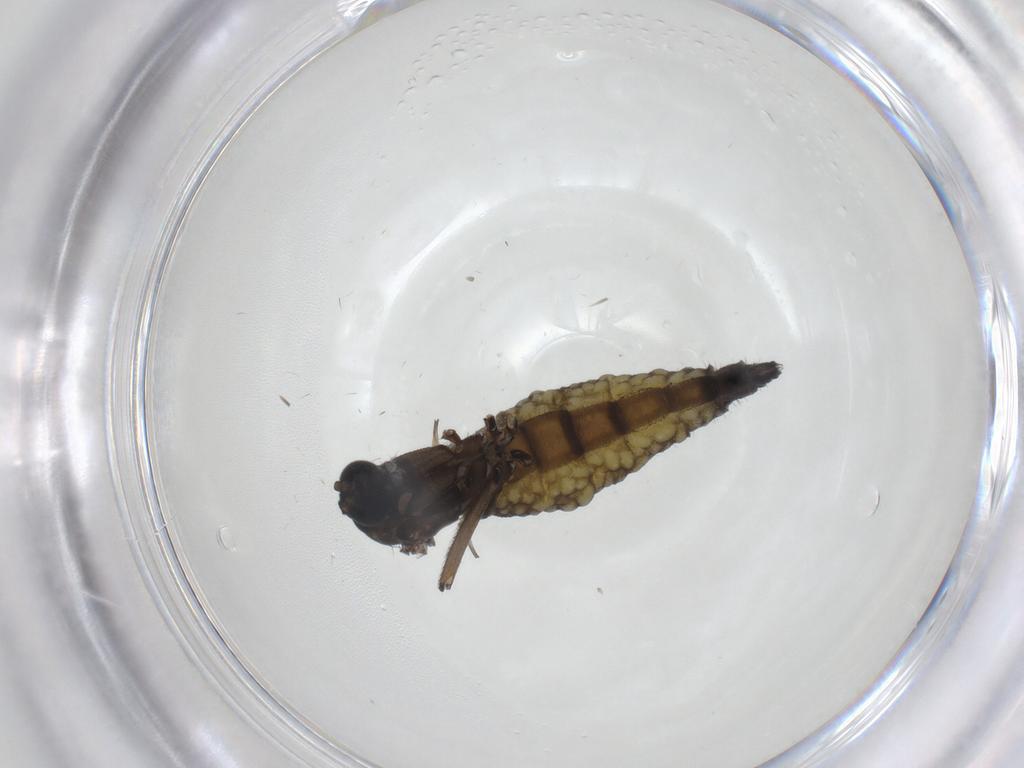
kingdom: Animalia
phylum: Arthropoda
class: Insecta
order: Diptera
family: Sciaridae
